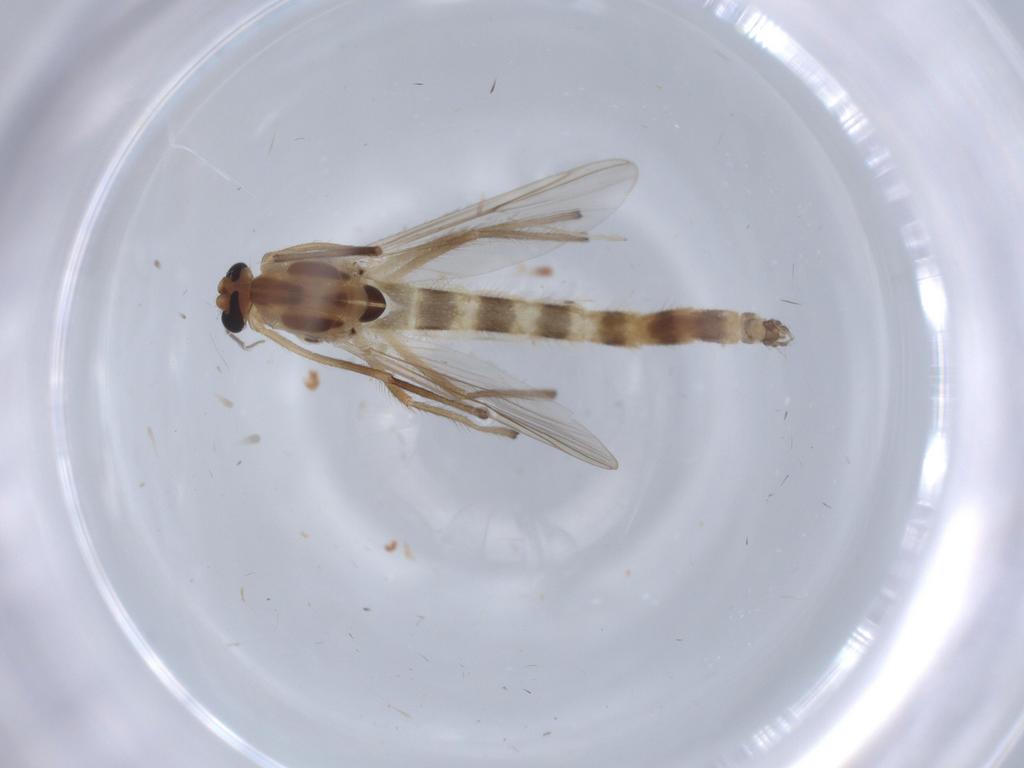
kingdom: Animalia
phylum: Arthropoda
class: Insecta
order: Diptera
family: Chironomidae
